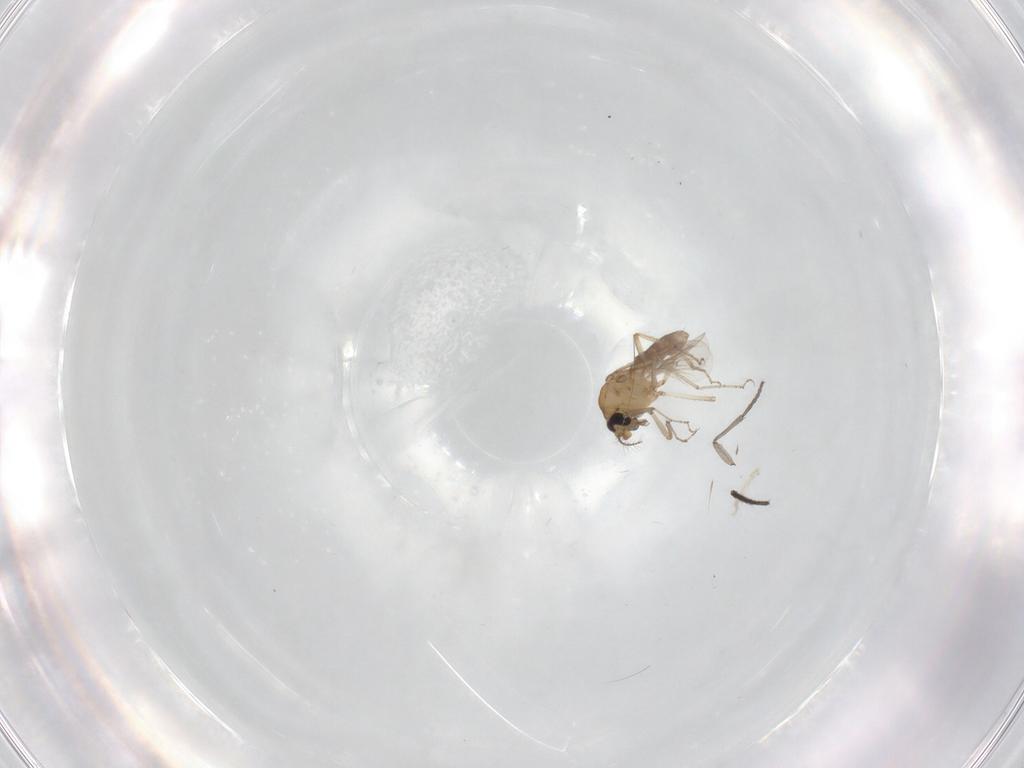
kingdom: Animalia
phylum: Arthropoda
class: Insecta
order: Diptera
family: Sciaridae
